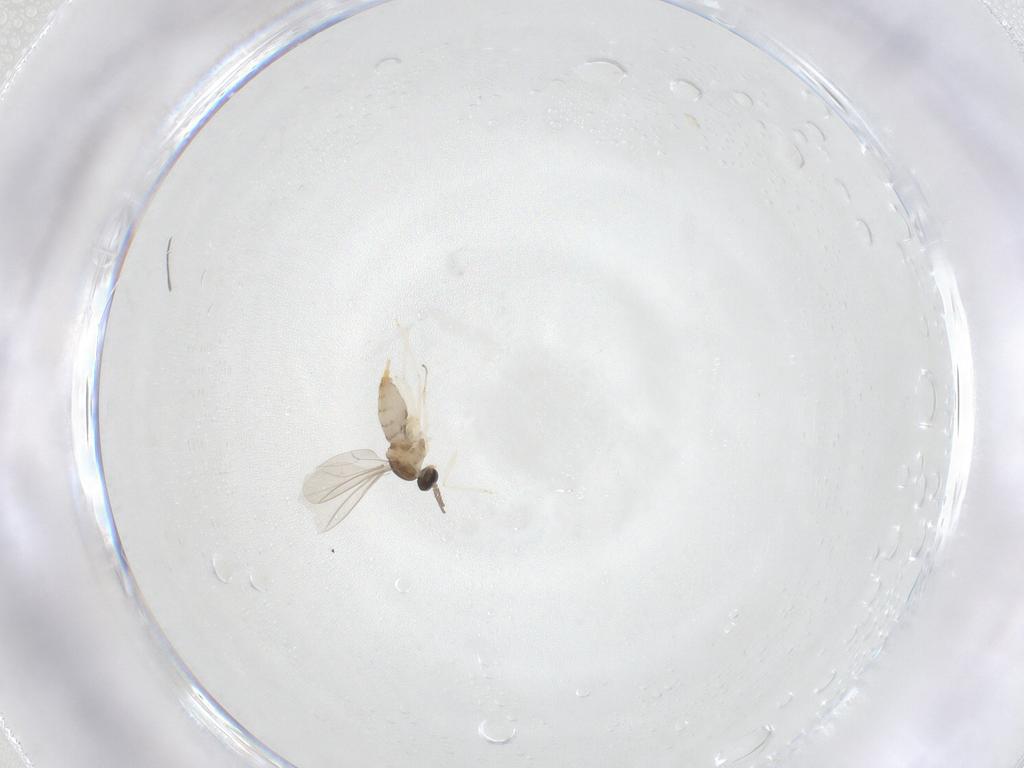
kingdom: Animalia
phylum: Arthropoda
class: Insecta
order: Diptera
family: Cecidomyiidae
